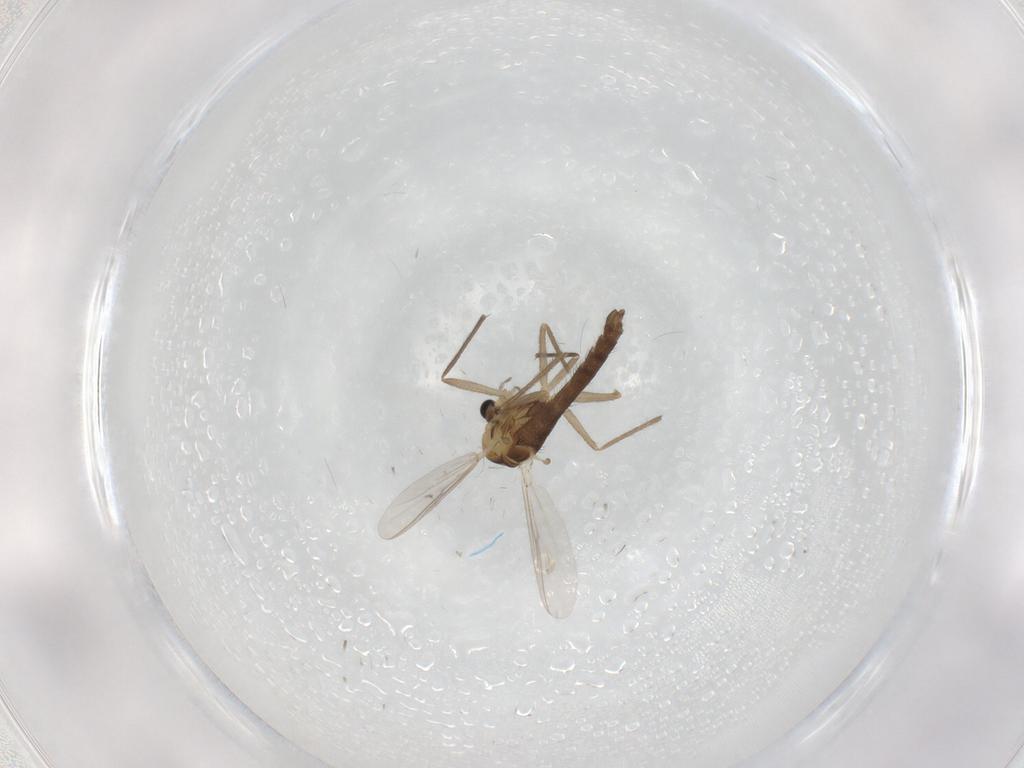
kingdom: Animalia
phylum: Arthropoda
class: Insecta
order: Diptera
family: Chironomidae
